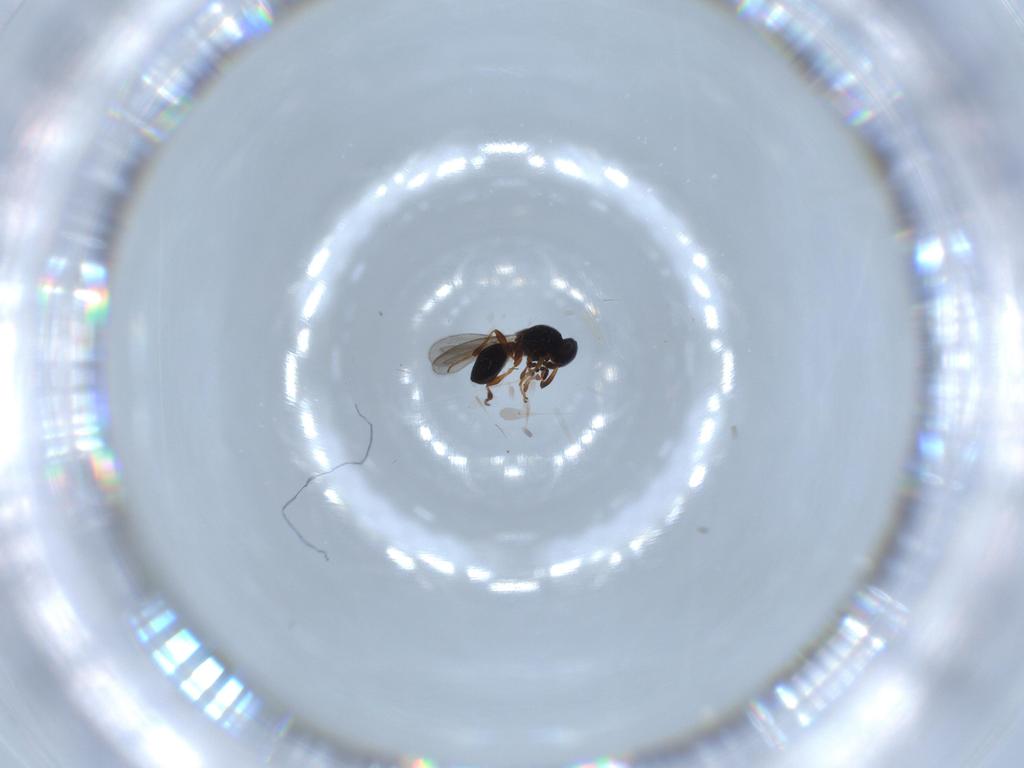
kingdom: Animalia
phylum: Arthropoda
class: Insecta
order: Hymenoptera
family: Platygastridae
